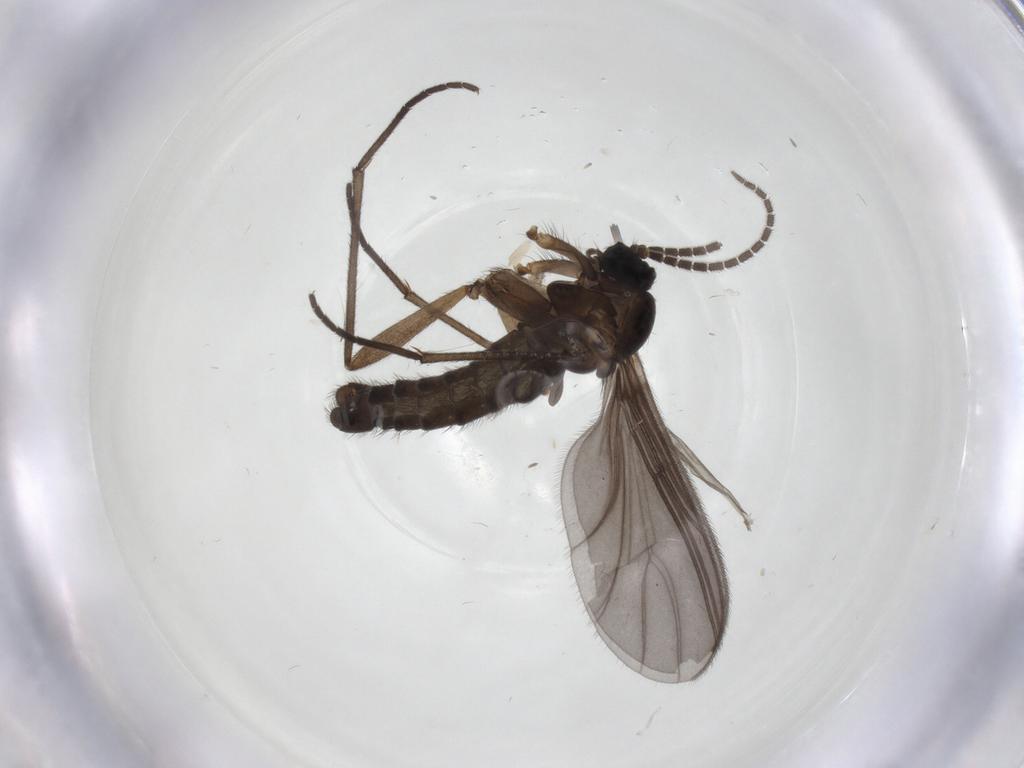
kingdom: Animalia
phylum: Arthropoda
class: Insecta
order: Diptera
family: Sciaridae
